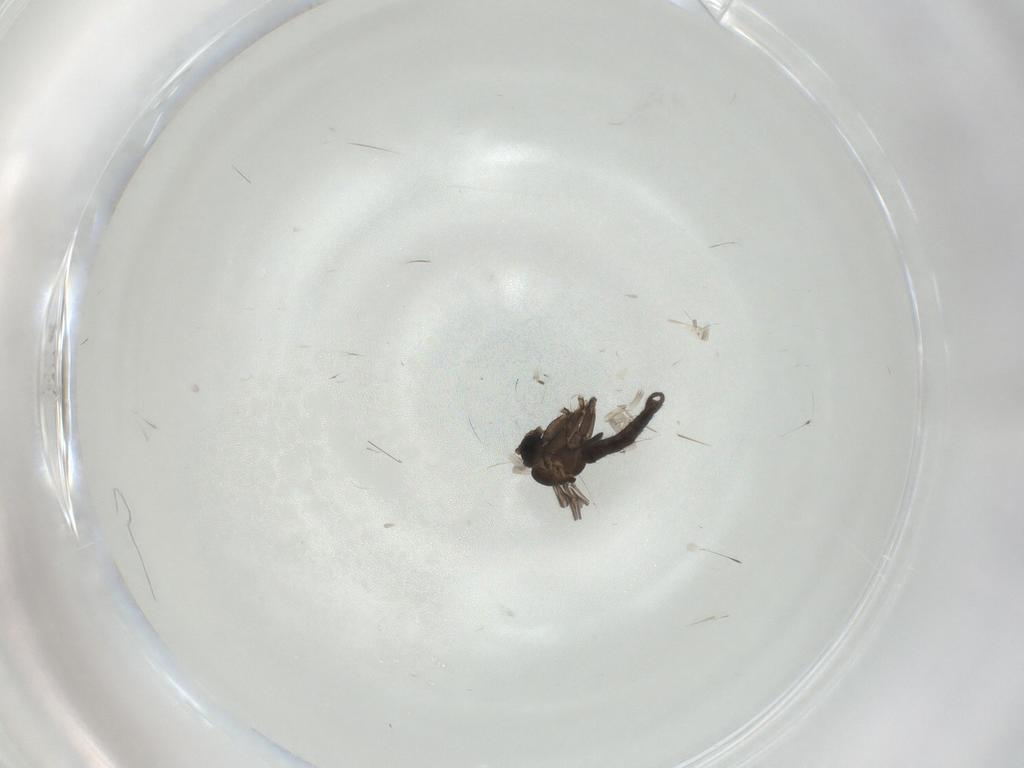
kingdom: Animalia
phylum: Arthropoda
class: Insecta
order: Diptera
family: Sciaridae
